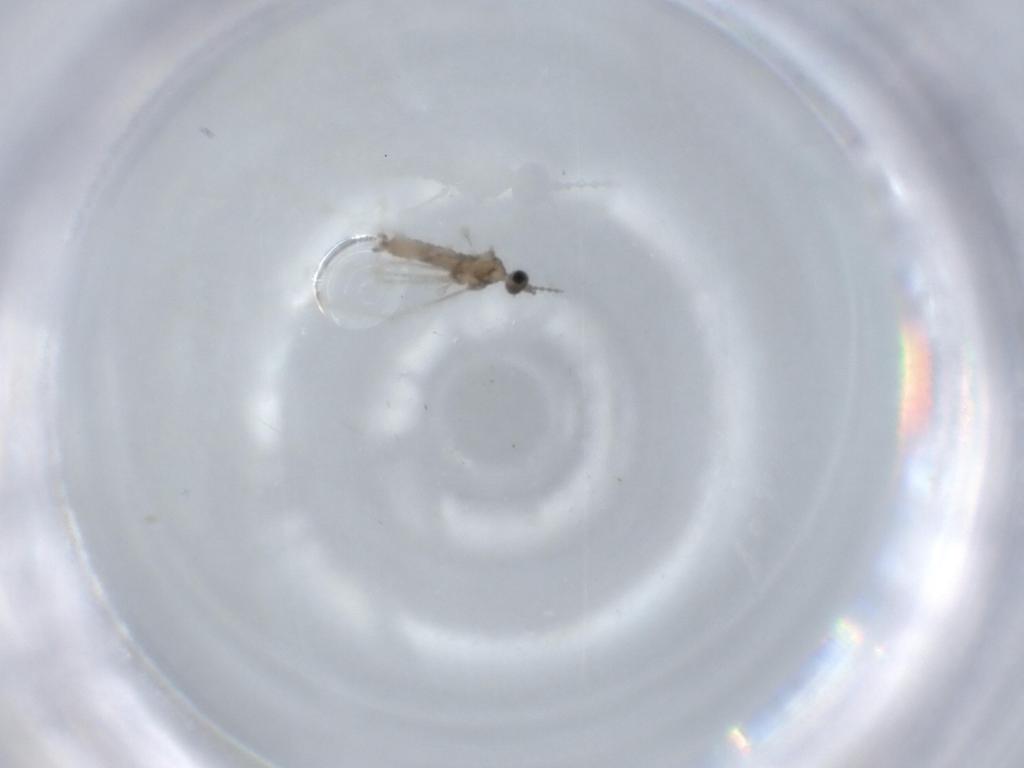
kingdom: Animalia
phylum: Arthropoda
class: Insecta
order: Diptera
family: Cecidomyiidae
